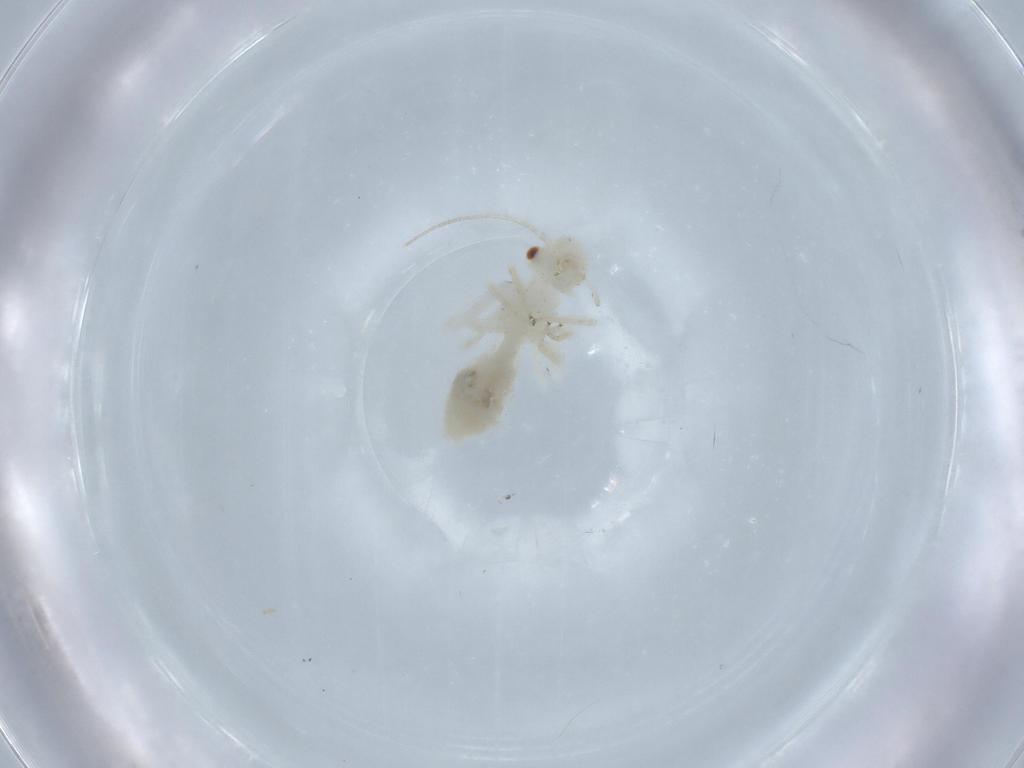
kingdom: Animalia
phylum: Arthropoda
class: Insecta
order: Psocodea
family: Caeciliusidae
